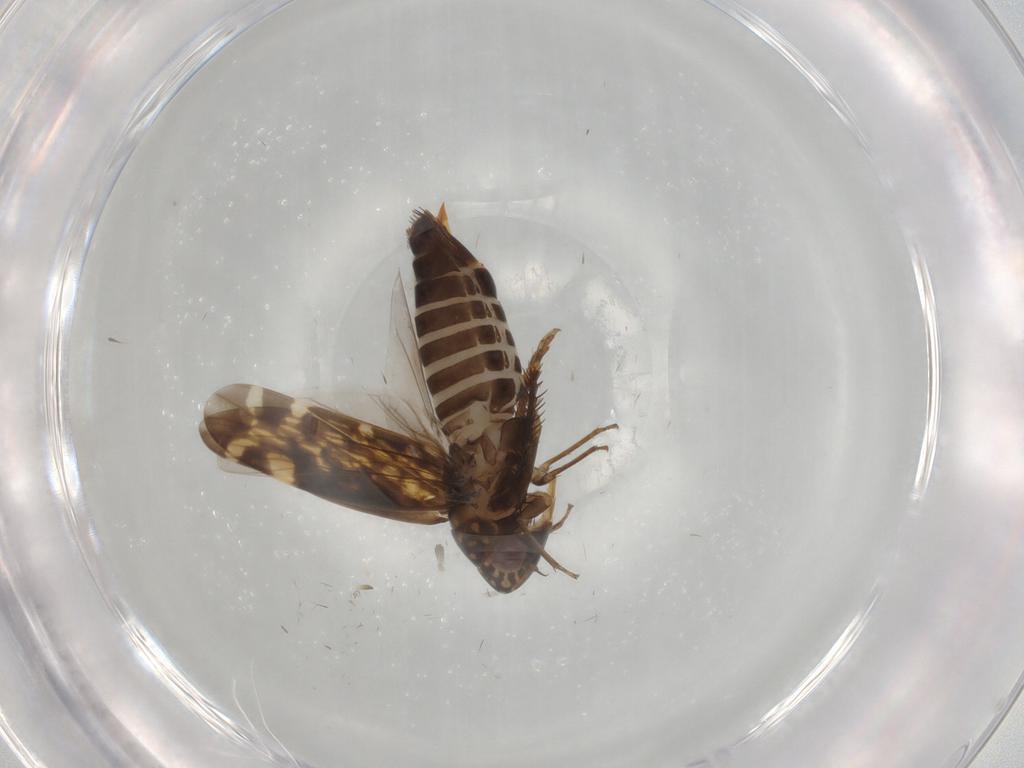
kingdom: Animalia
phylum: Arthropoda
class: Insecta
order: Hemiptera
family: Cicadellidae
